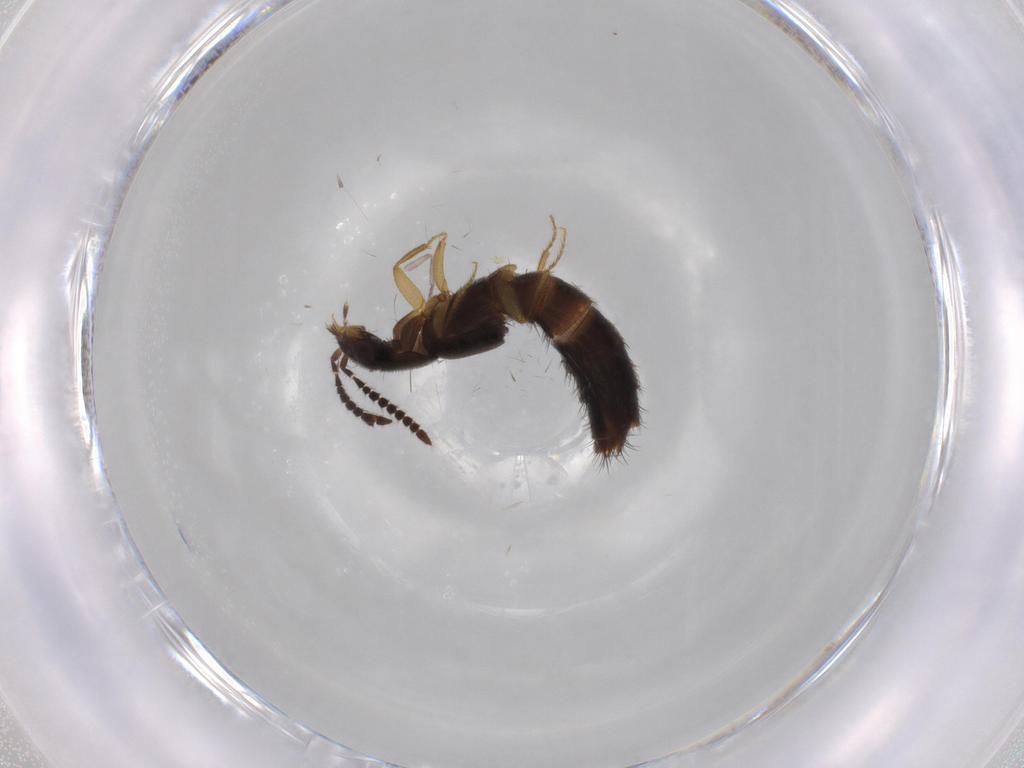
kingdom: Animalia
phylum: Arthropoda
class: Insecta
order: Coleoptera
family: Staphylinidae
